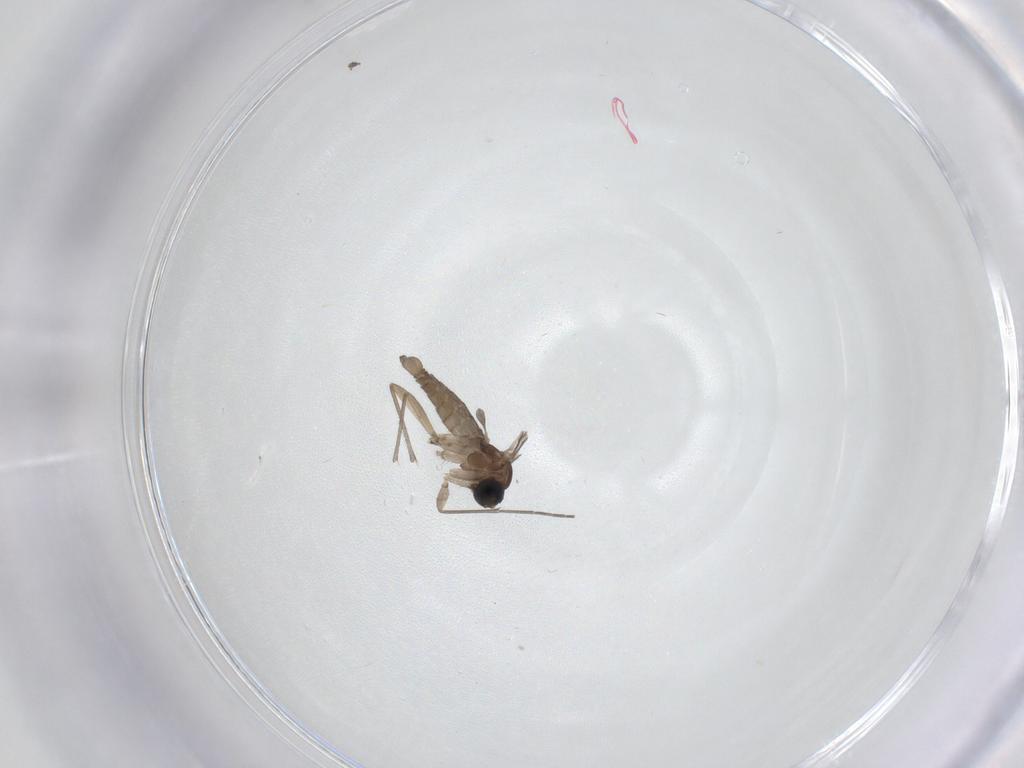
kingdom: Animalia
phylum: Arthropoda
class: Insecta
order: Diptera
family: Sciaridae
